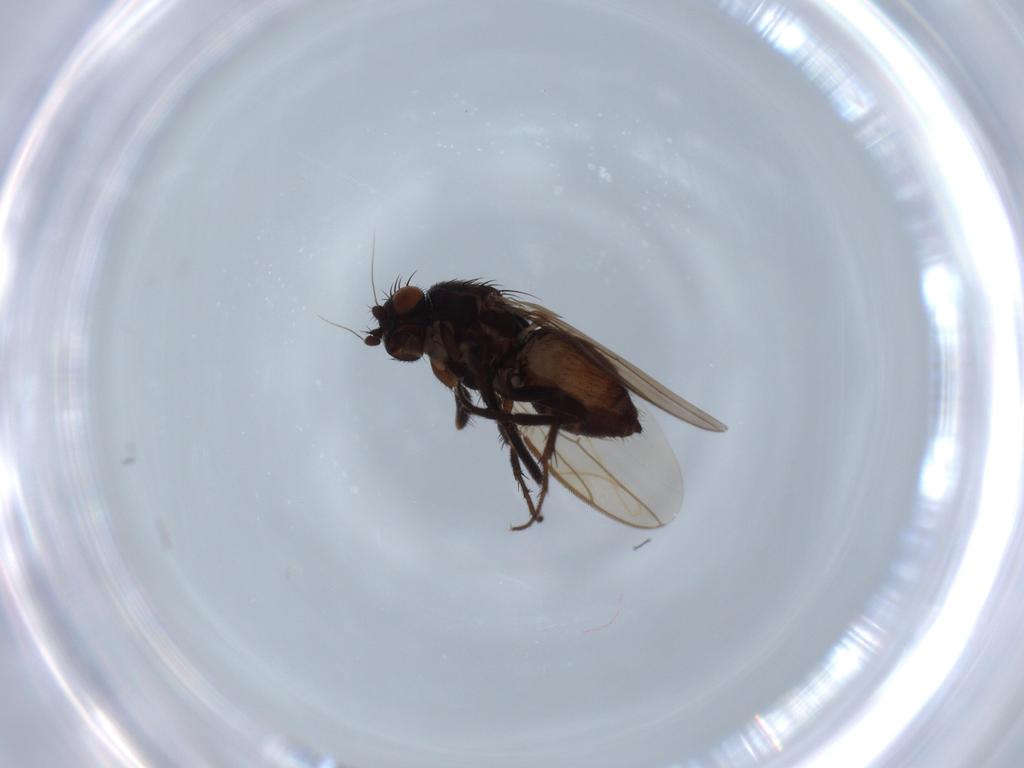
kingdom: Animalia
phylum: Arthropoda
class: Insecta
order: Diptera
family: Sphaeroceridae
